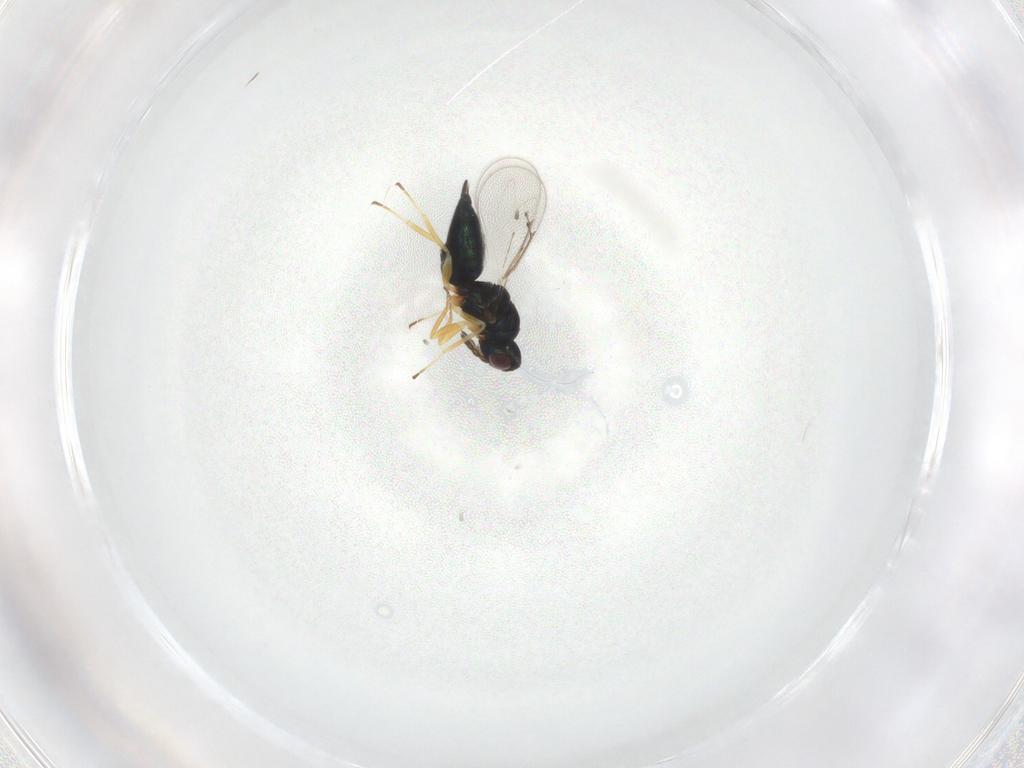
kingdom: Animalia
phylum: Arthropoda
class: Insecta
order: Hymenoptera
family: Eulophidae
